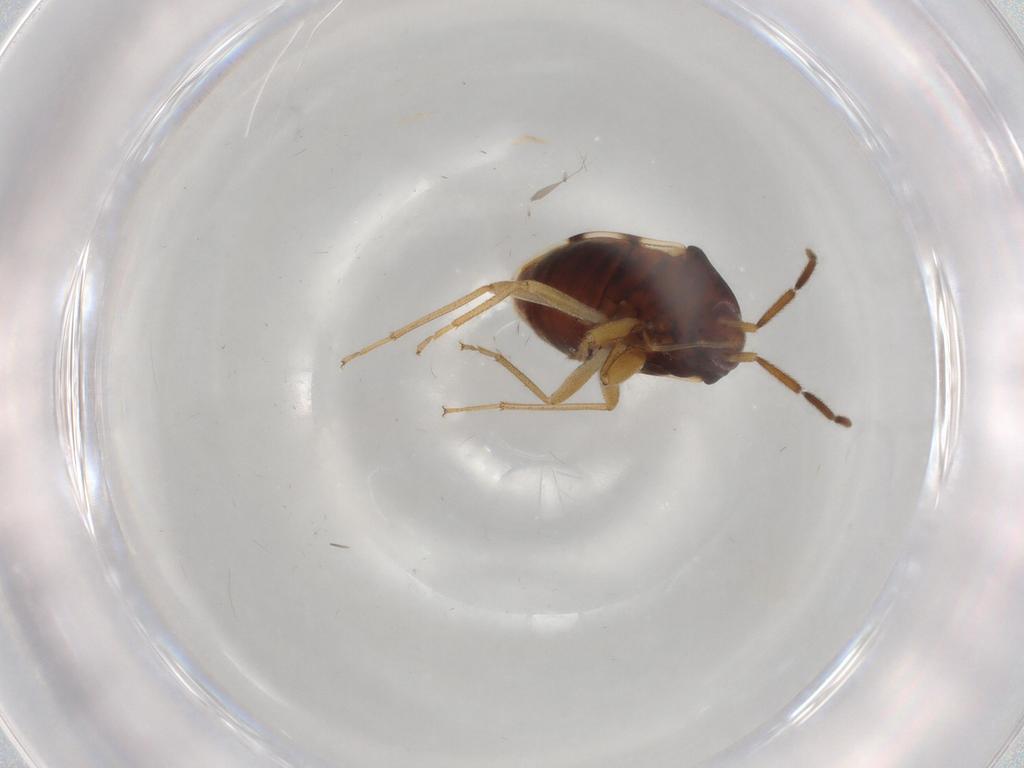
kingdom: Animalia
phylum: Arthropoda
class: Insecta
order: Hemiptera
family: Rhyparochromidae
